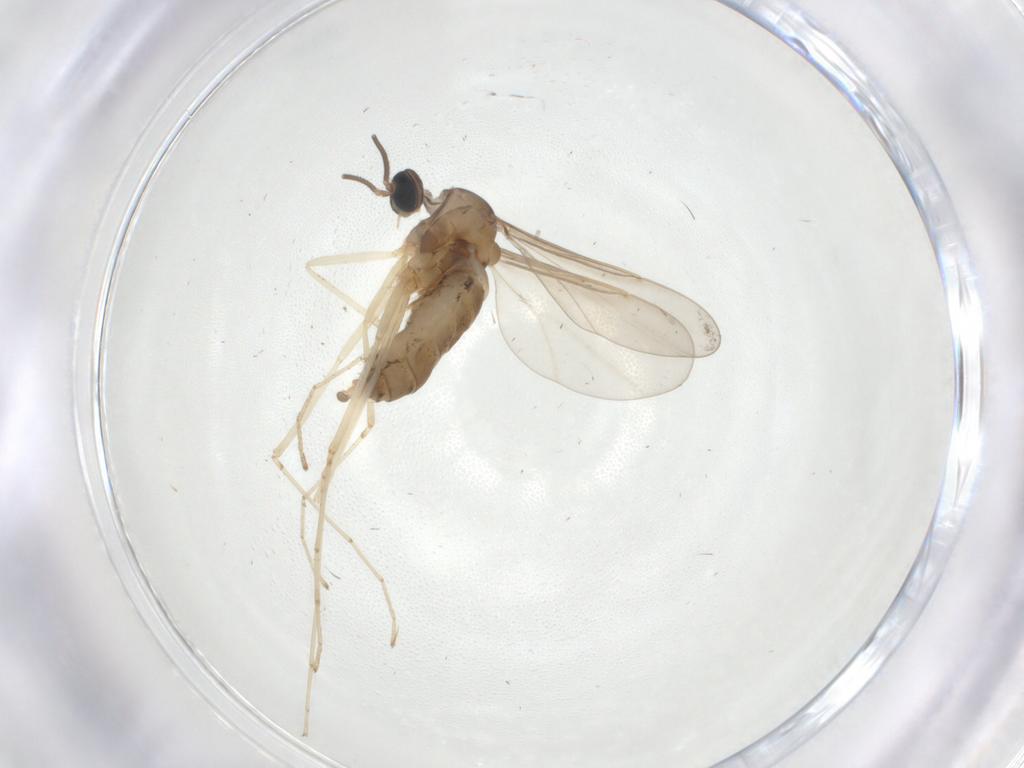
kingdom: Animalia
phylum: Arthropoda
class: Insecta
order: Diptera
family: Cecidomyiidae
